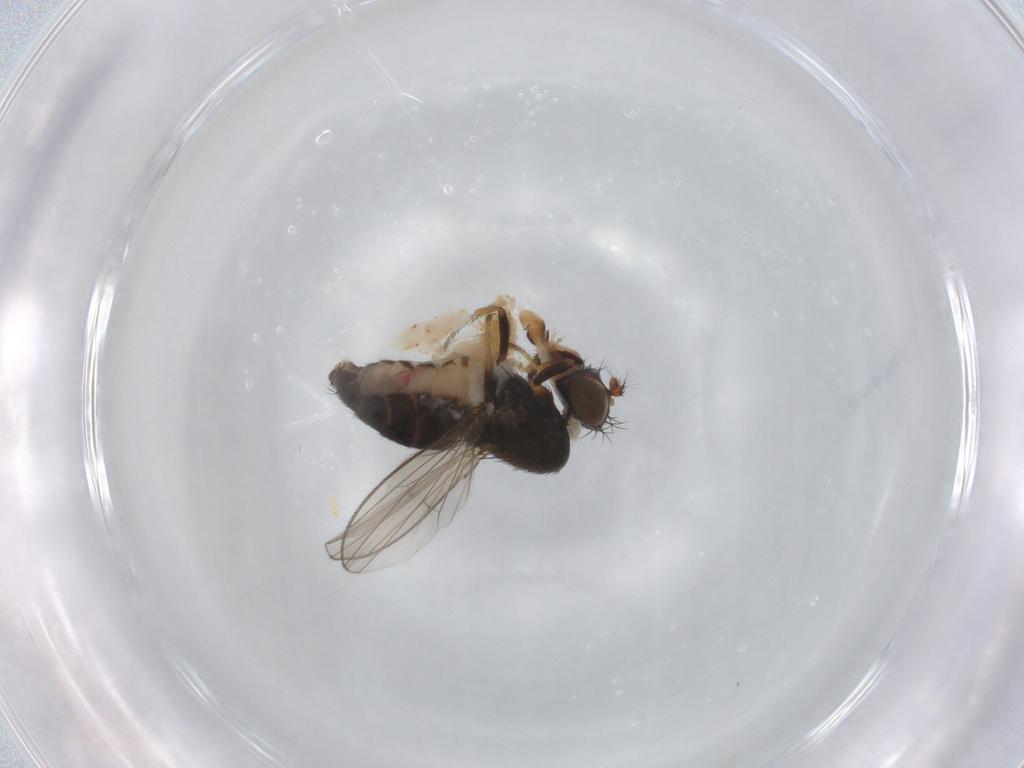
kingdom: Animalia
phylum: Arthropoda
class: Insecta
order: Diptera
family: Ephydridae
